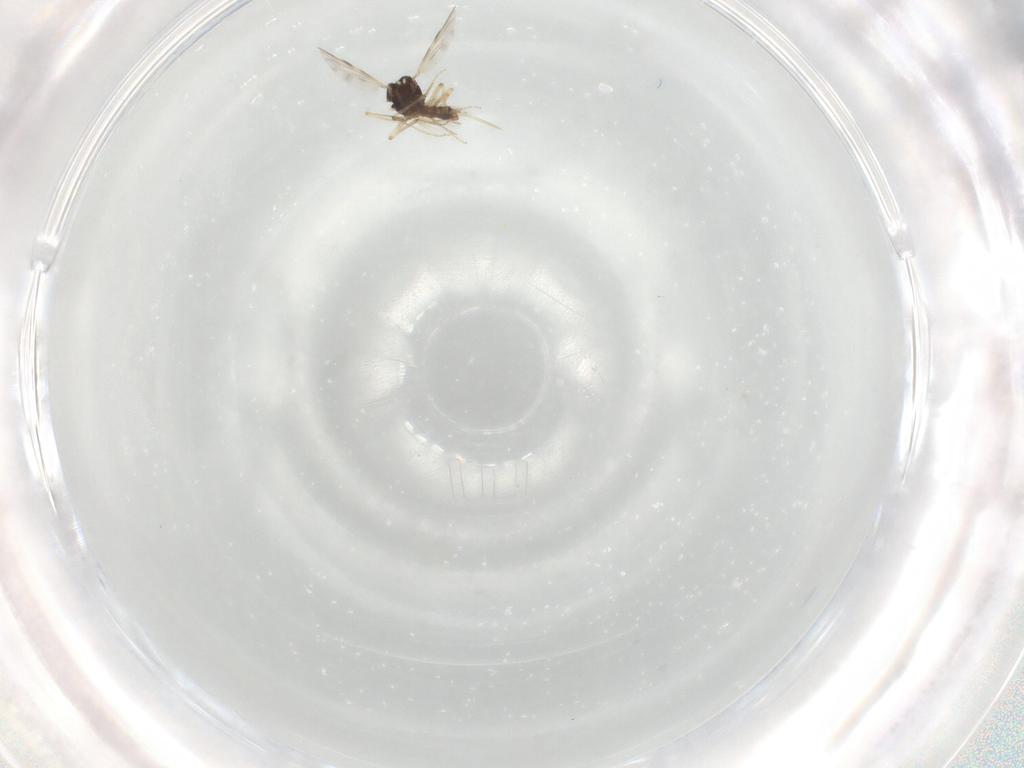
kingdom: Animalia
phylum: Arthropoda
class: Insecta
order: Diptera
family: Ceratopogonidae
